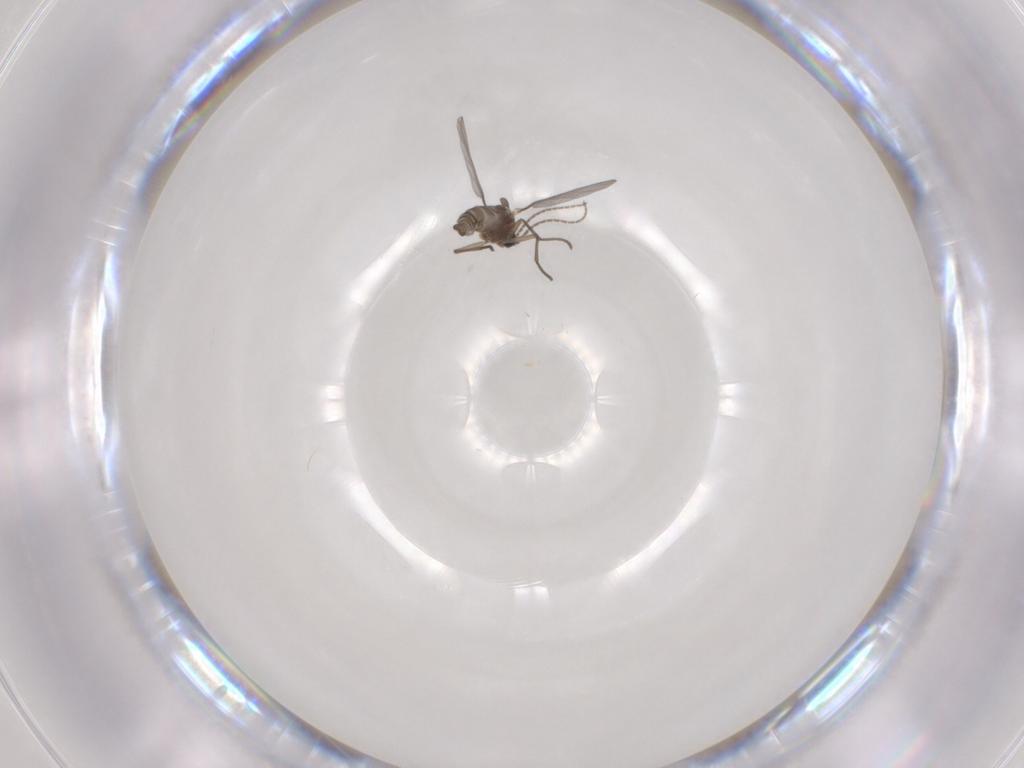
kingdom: Animalia
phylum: Arthropoda
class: Insecta
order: Diptera
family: Sciaridae
